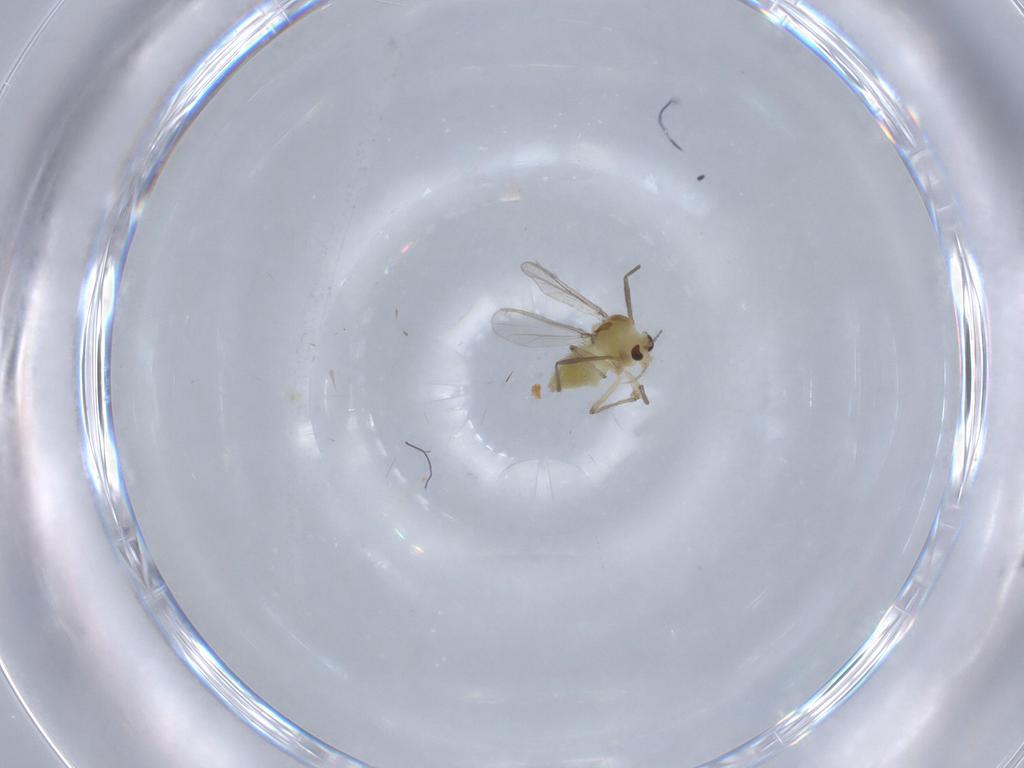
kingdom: Animalia
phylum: Arthropoda
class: Insecta
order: Diptera
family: Chironomidae
